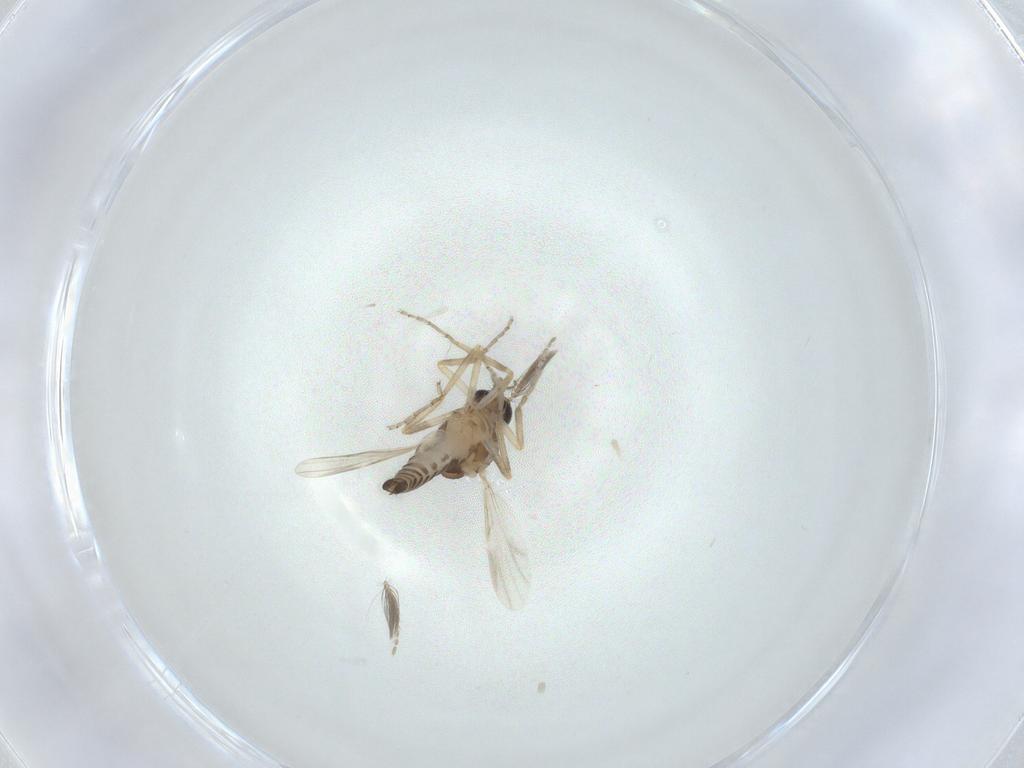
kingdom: Animalia
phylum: Arthropoda
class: Insecta
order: Diptera
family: Ceratopogonidae
